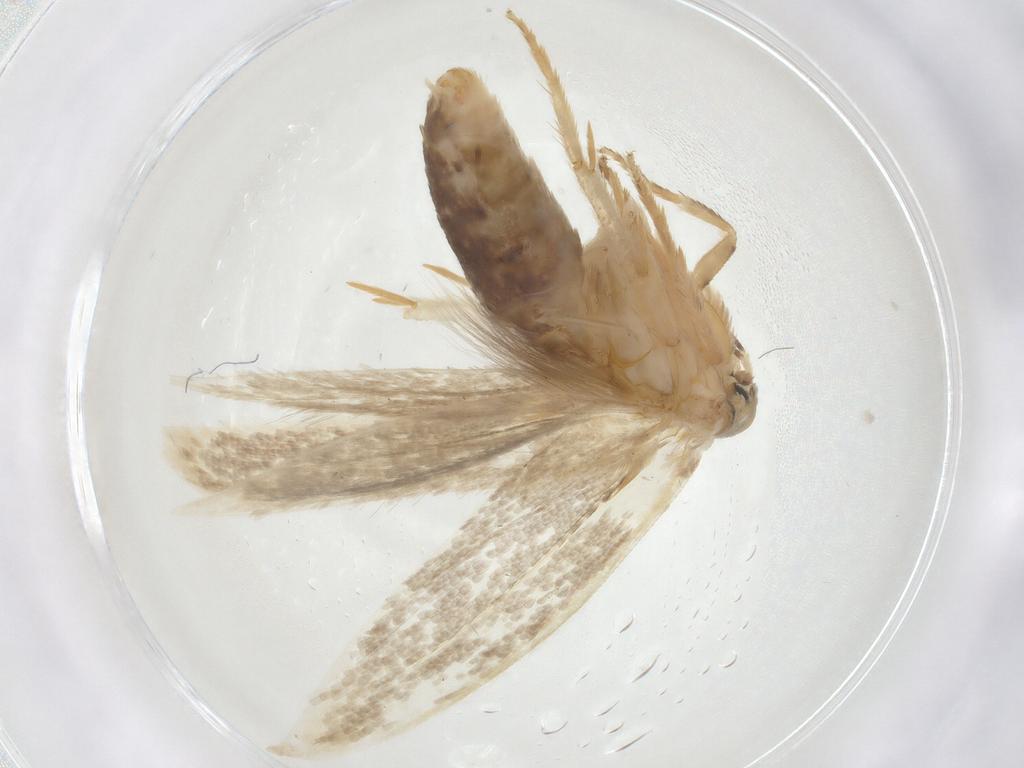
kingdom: Animalia
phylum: Arthropoda
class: Insecta
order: Lepidoptera
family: Opostegidae
